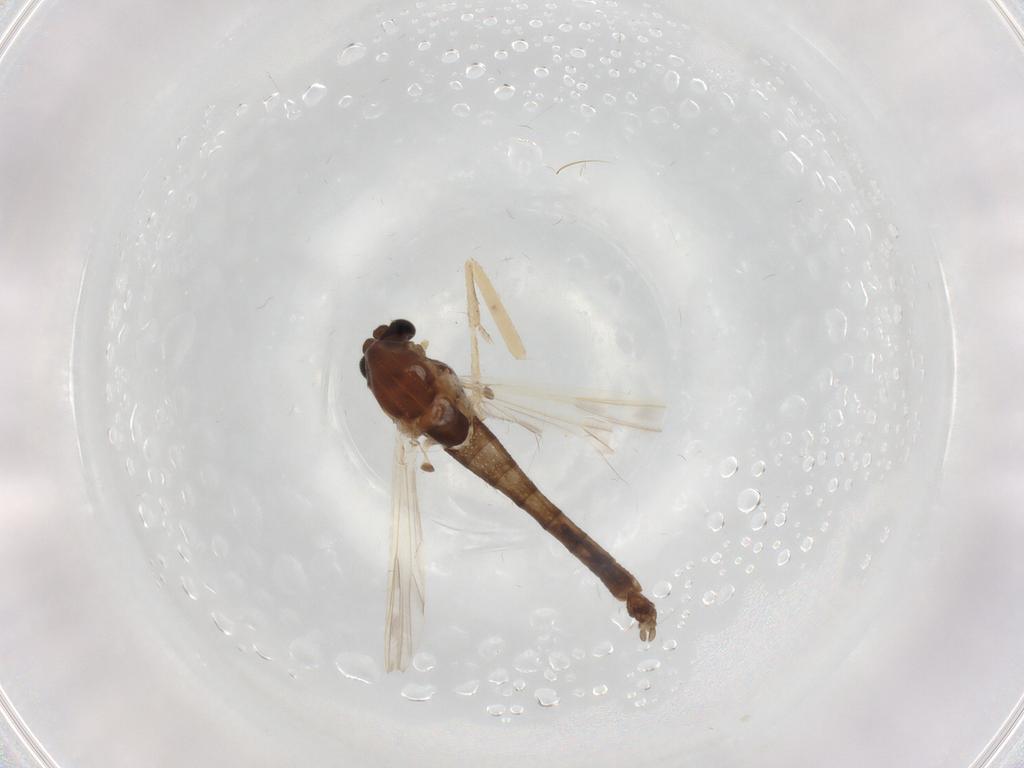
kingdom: Animalia
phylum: Arthropoda
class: Insecta
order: Diptera
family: Chironomidae
